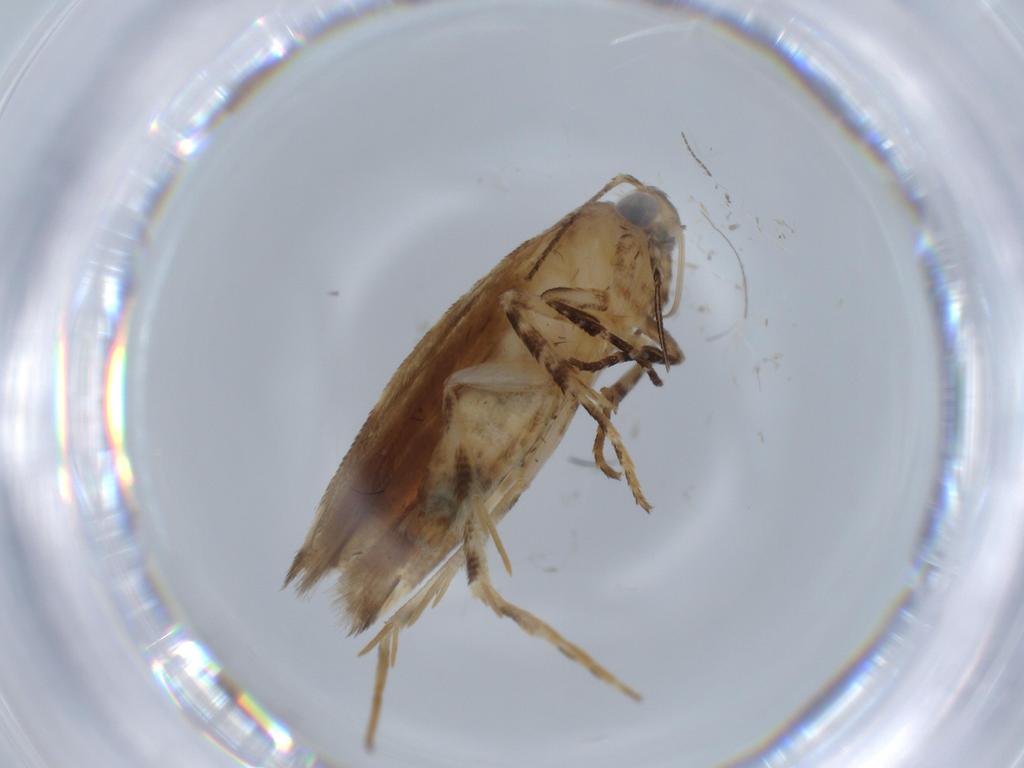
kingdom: Animalia
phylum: Arthropoda
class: Insecta
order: Lepidoptera
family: Gelechiidae
